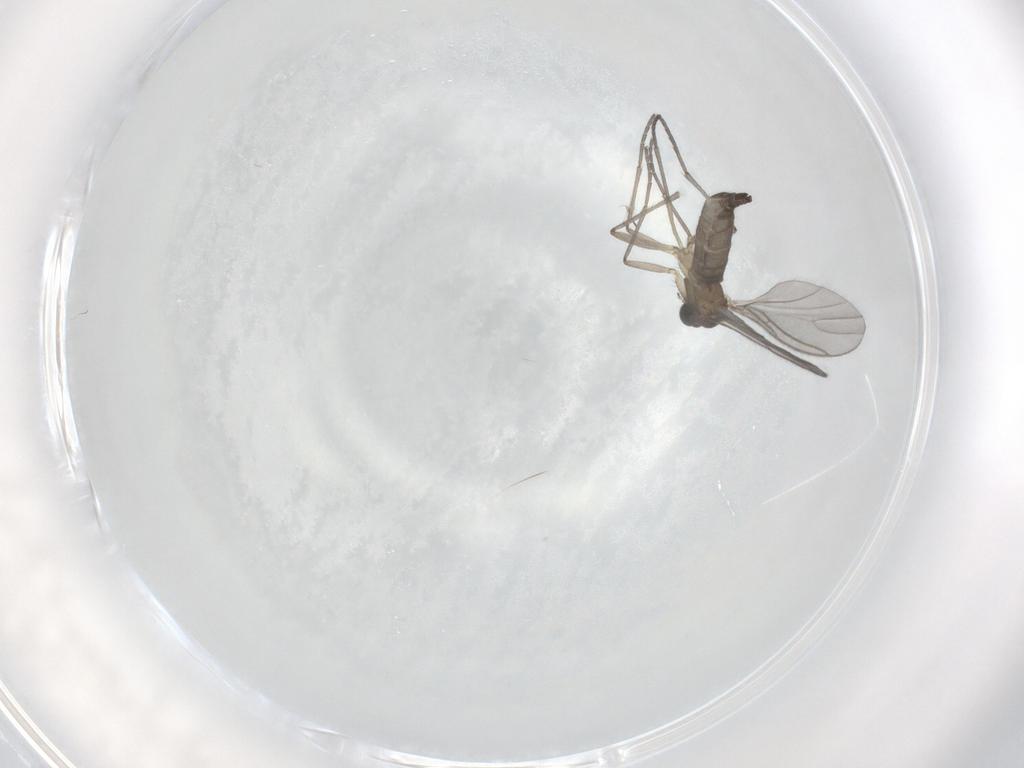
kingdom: Animalia
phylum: Arthropoda
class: Insecta
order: Diptera
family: Sciaridae
